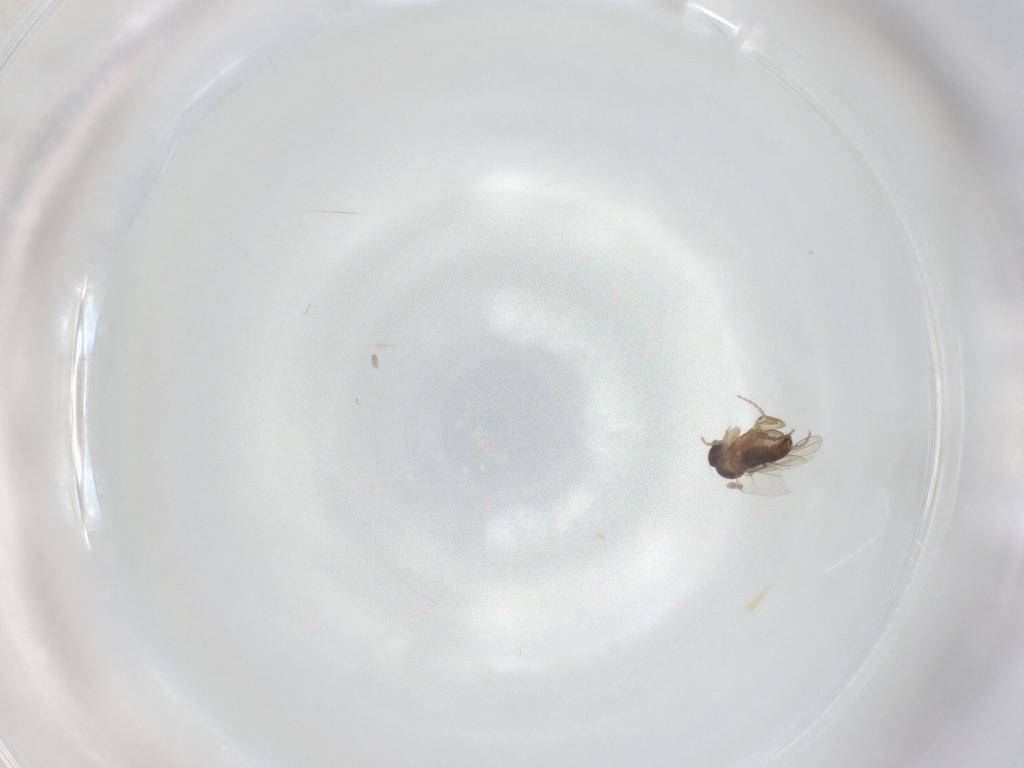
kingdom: Animalia
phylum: Arthropoda
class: Insecta
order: Diptera
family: Phoridae
